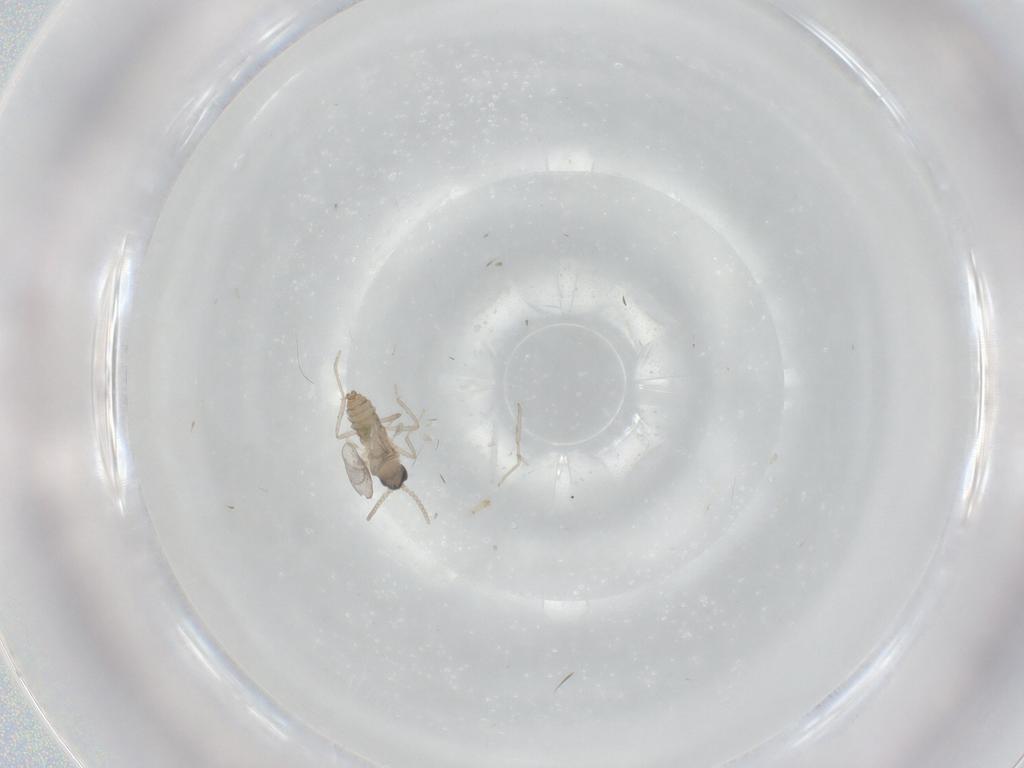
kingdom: Animalia
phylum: Arthropoda
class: Insecta
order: Diptera
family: Cecidomyiidae
